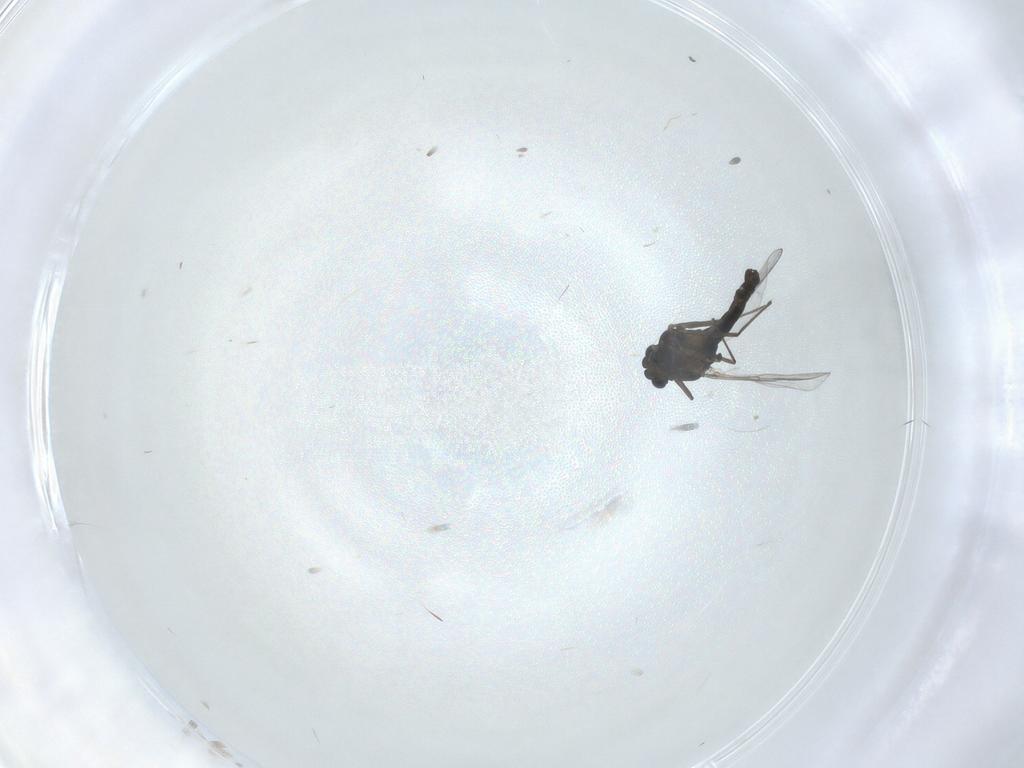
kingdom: Animalia
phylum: Arthropoda
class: Insecta
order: Diptera
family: Chironomidae
